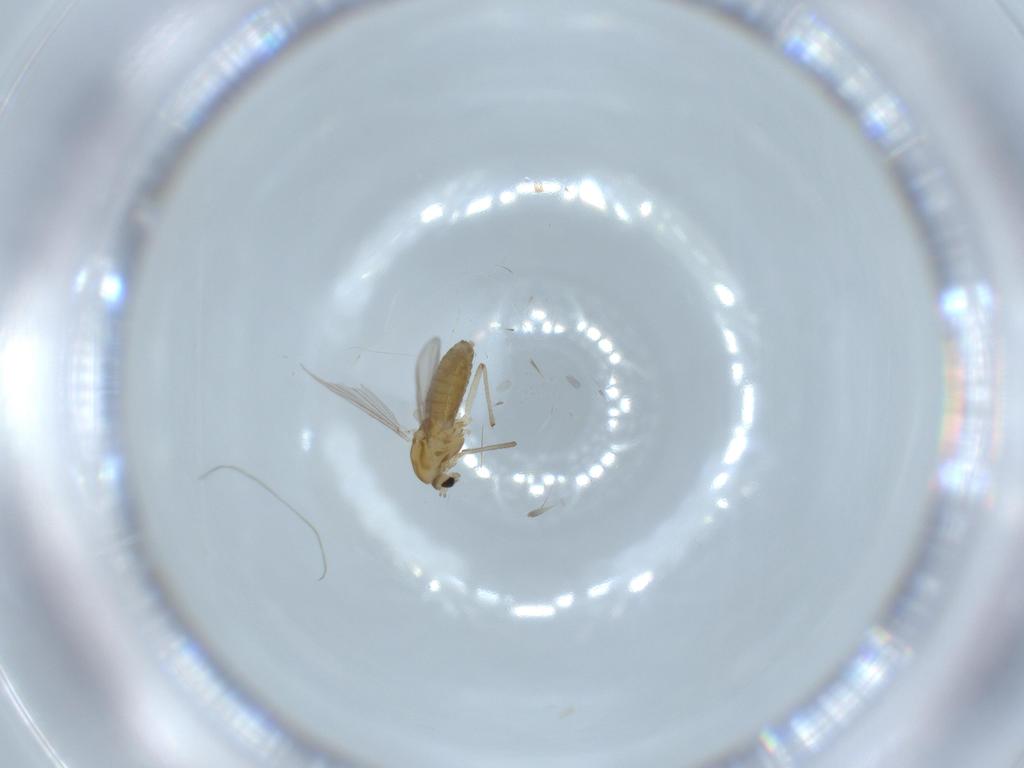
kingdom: Animalia
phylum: Arthropoda
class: Insecta
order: Diptera
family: Chironomidae
